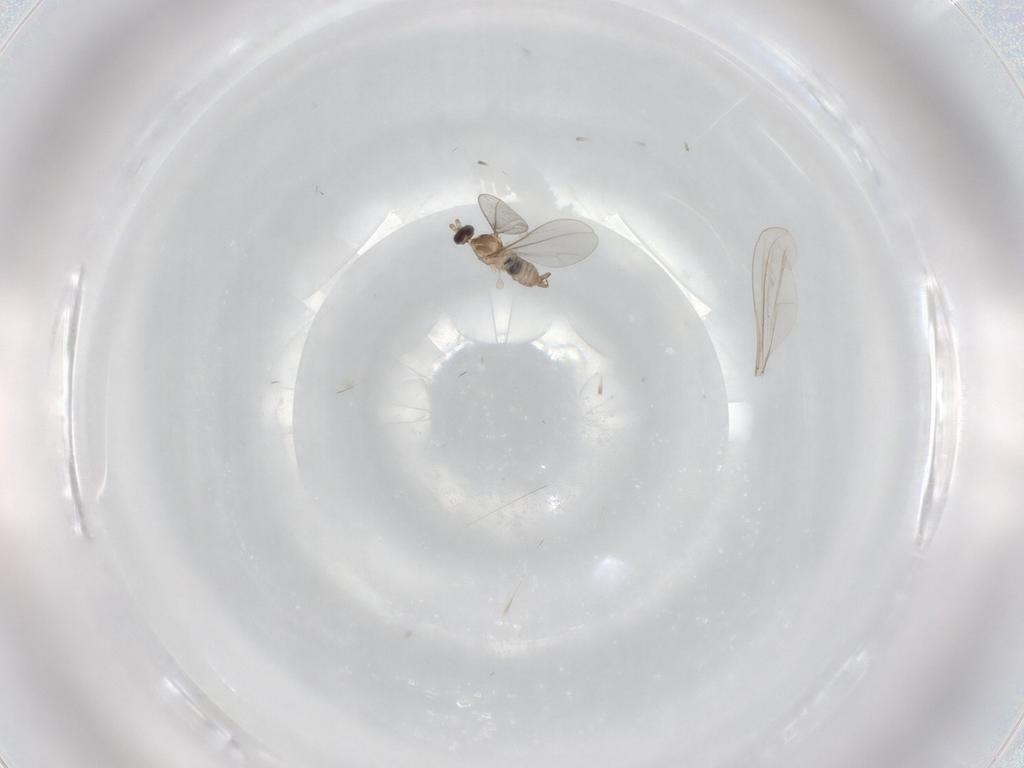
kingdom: Animalia
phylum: Arthropoda
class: Insecta
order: Diptera
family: Cecidomyiidae
